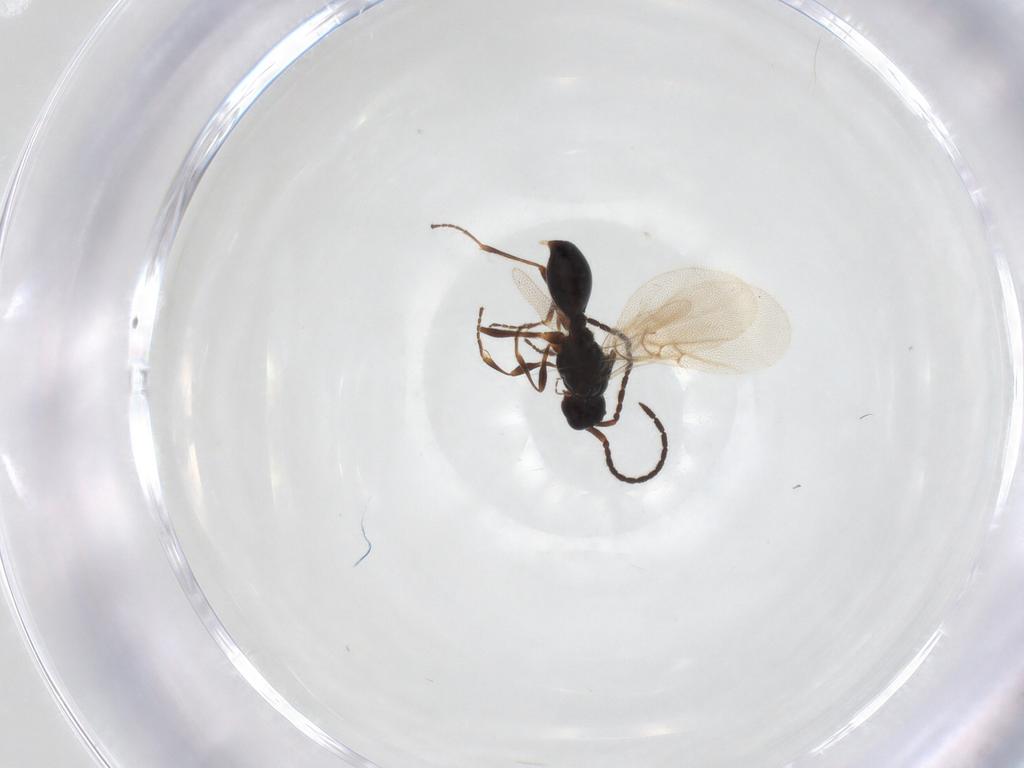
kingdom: Animalia
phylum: Arthropoda
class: Insecta
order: Hymenoptera
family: Diapriidae
